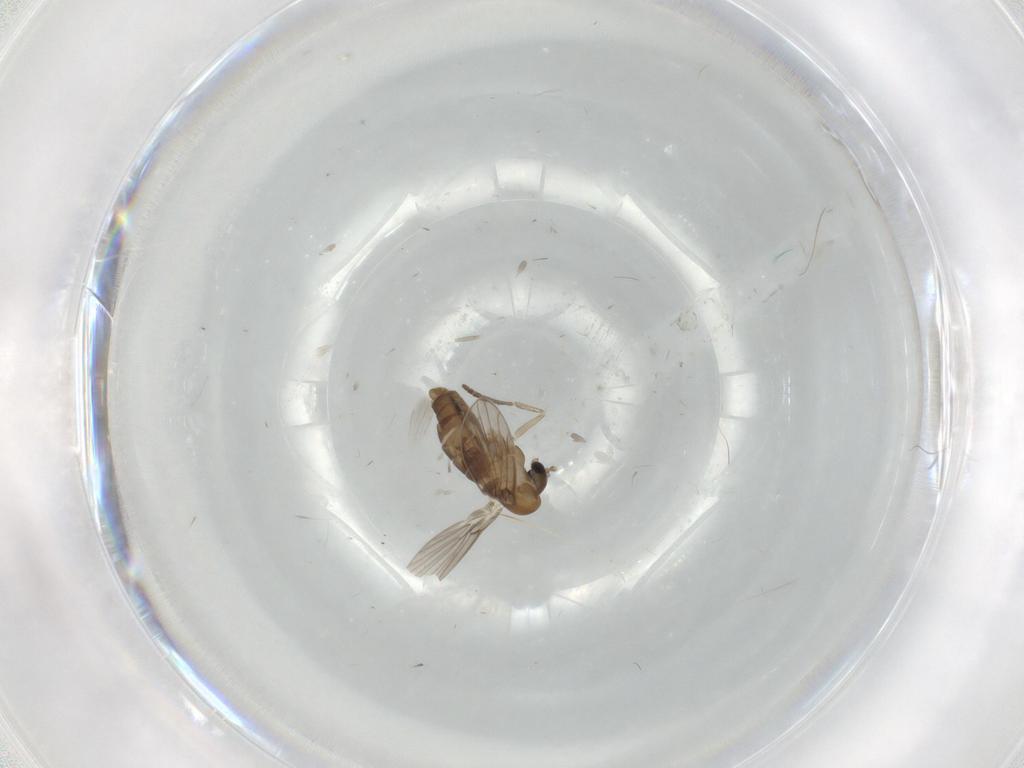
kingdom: Animalia
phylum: Arthropoda
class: Insecta
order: Diptera
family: Psychodidae
